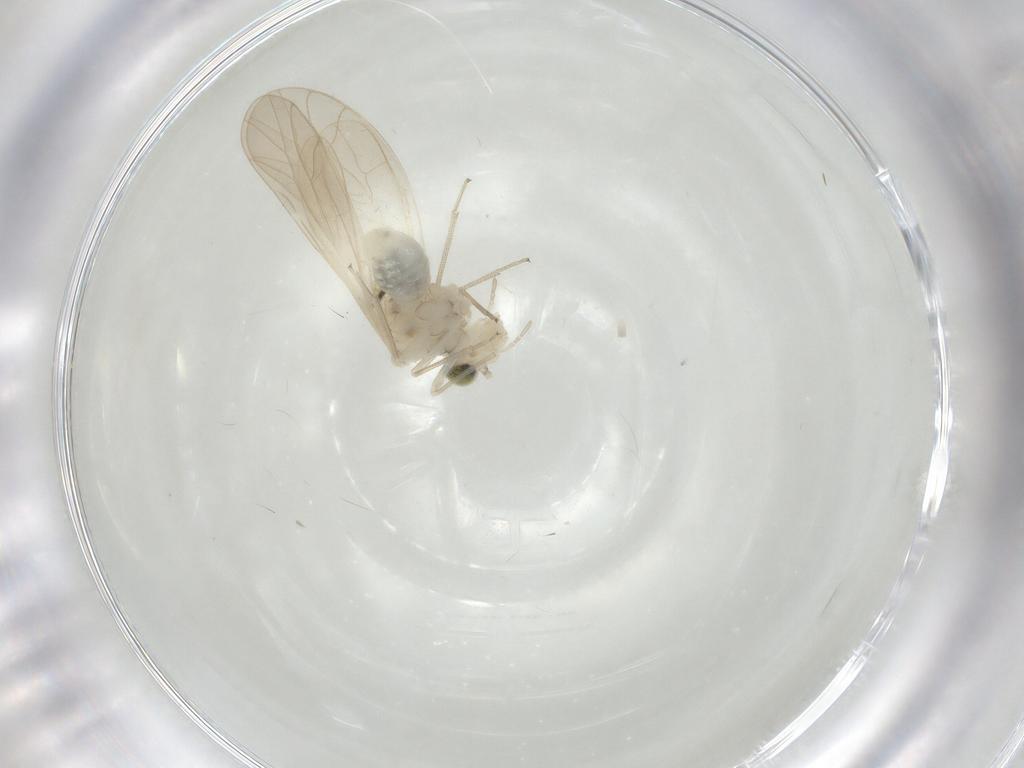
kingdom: Animalia
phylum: Arthropoda
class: Insecta
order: Psocodea
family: Caeciliusidae
